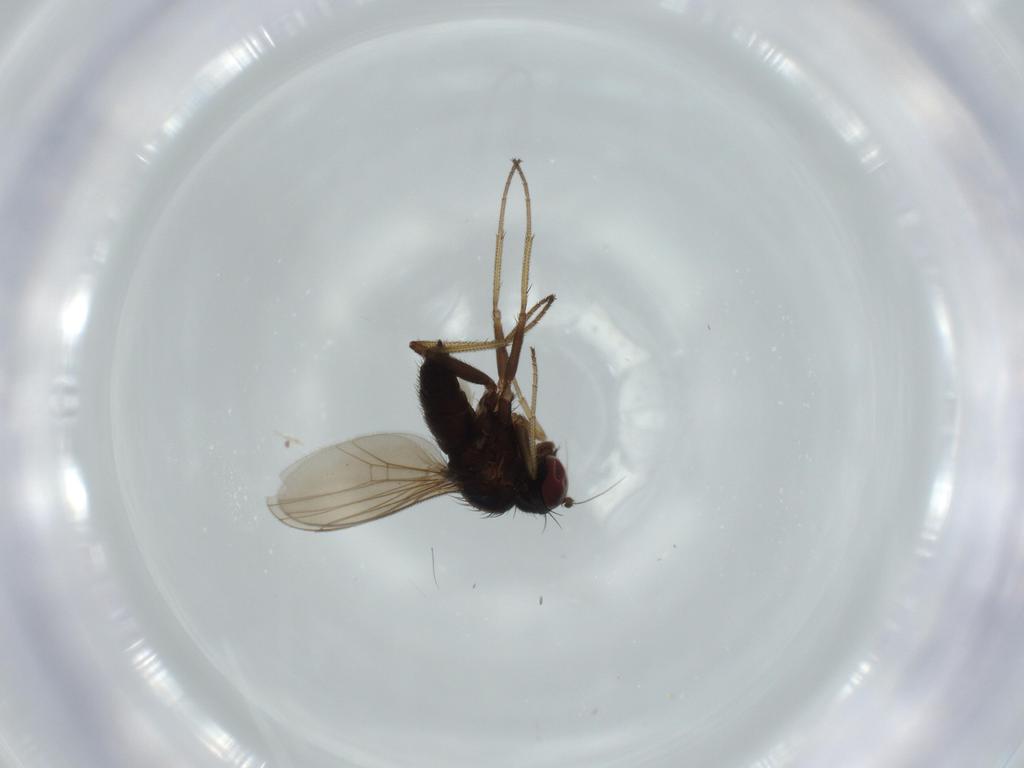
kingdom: Animalia
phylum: Arthropoda
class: Insecta
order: Diptera
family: Dolichopodidae
